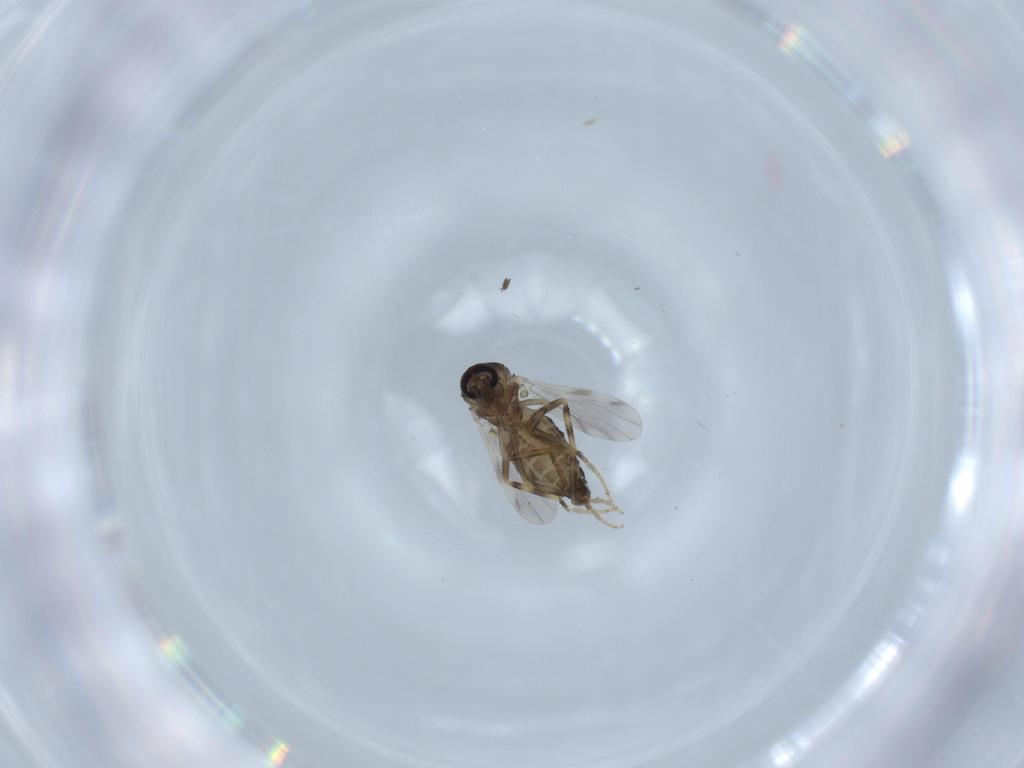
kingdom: Animalia
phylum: Arthropoda
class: Insecta
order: Diptera
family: Ceratopogonidae
